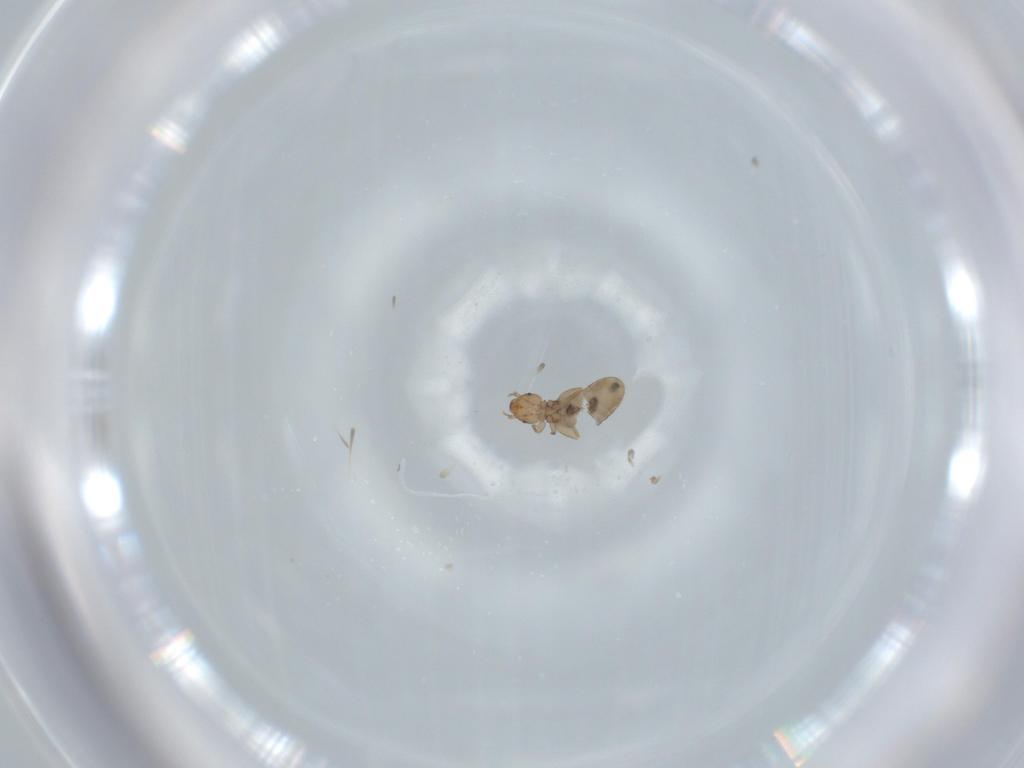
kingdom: Animalia
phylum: Arthropoda
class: Insecta
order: Psocodea
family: Liposcelididae
